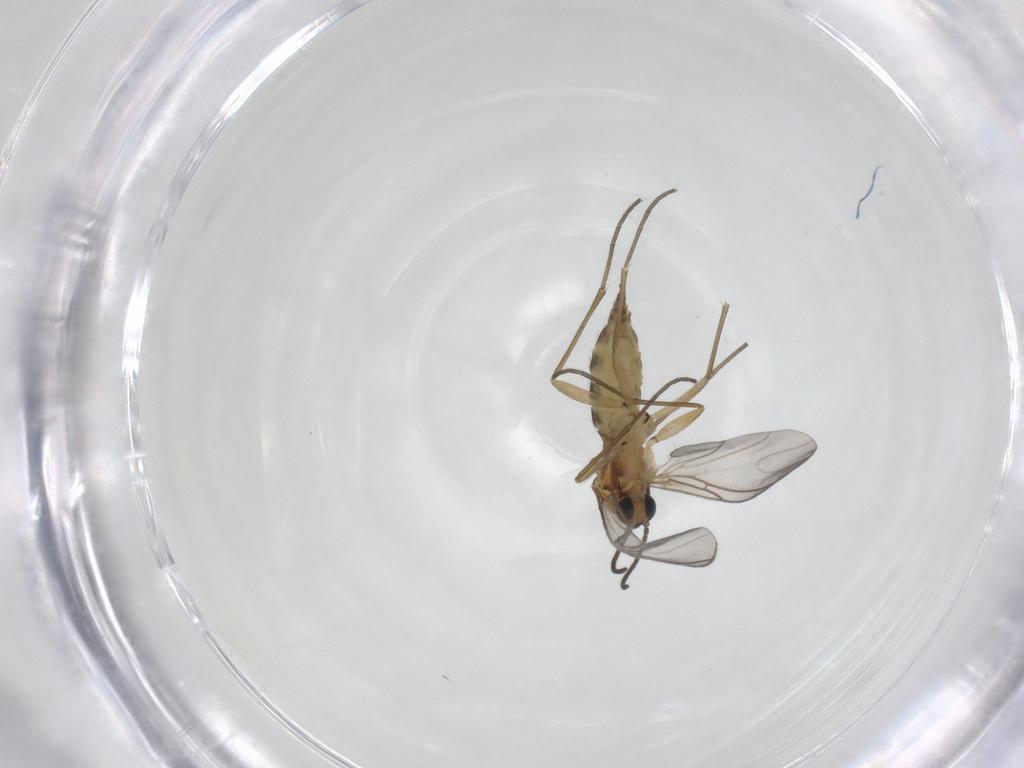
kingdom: Animalia
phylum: Arthropoda
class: Insecta
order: Diptera
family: Sciaridae
